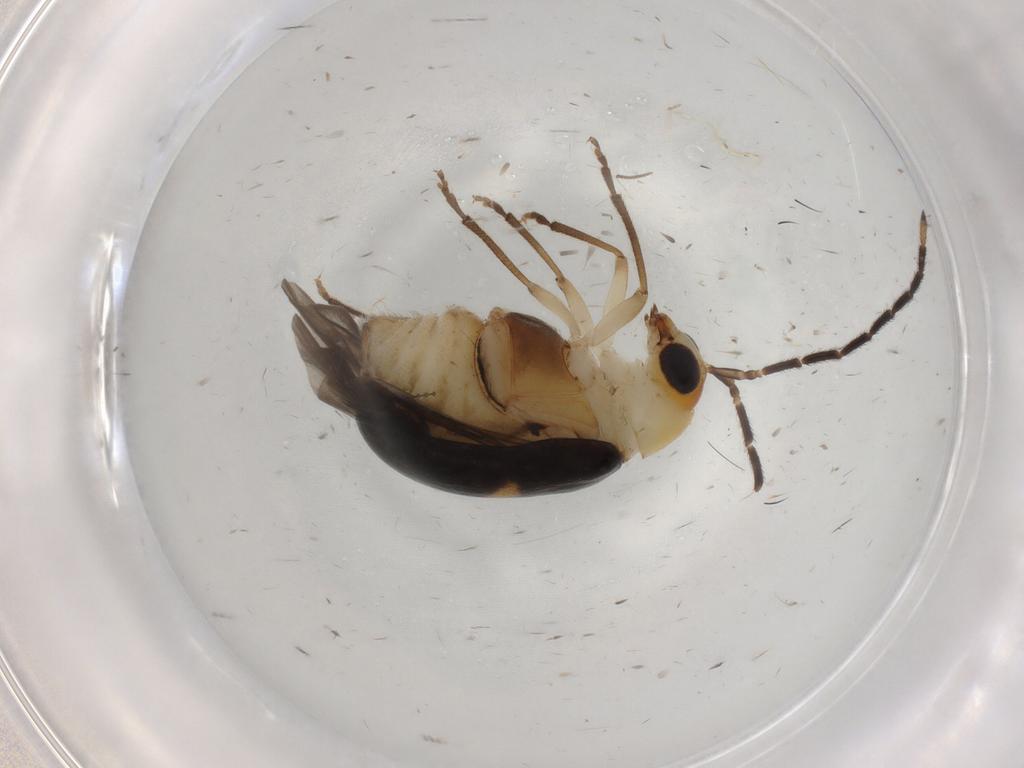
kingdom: Animalia
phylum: Arthropoda
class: Insecta
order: Coleoptera
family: Chrysomelidae
